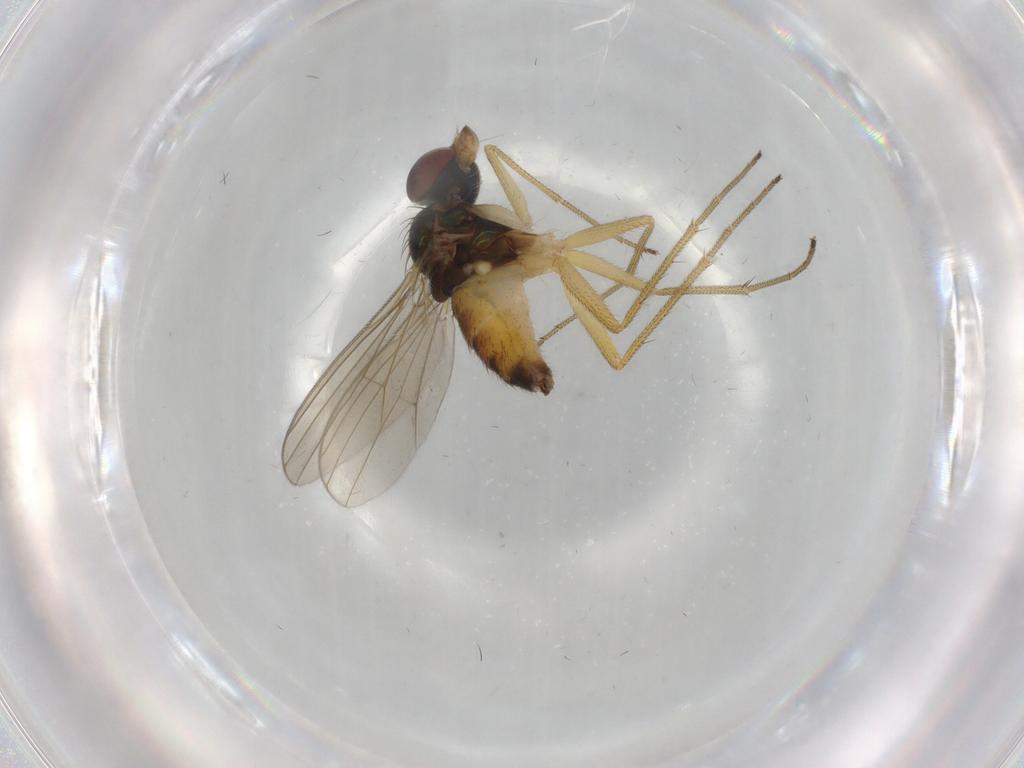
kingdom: Animalia
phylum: Arthropoda
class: Insecta
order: Diptera
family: Dolichopodidae
